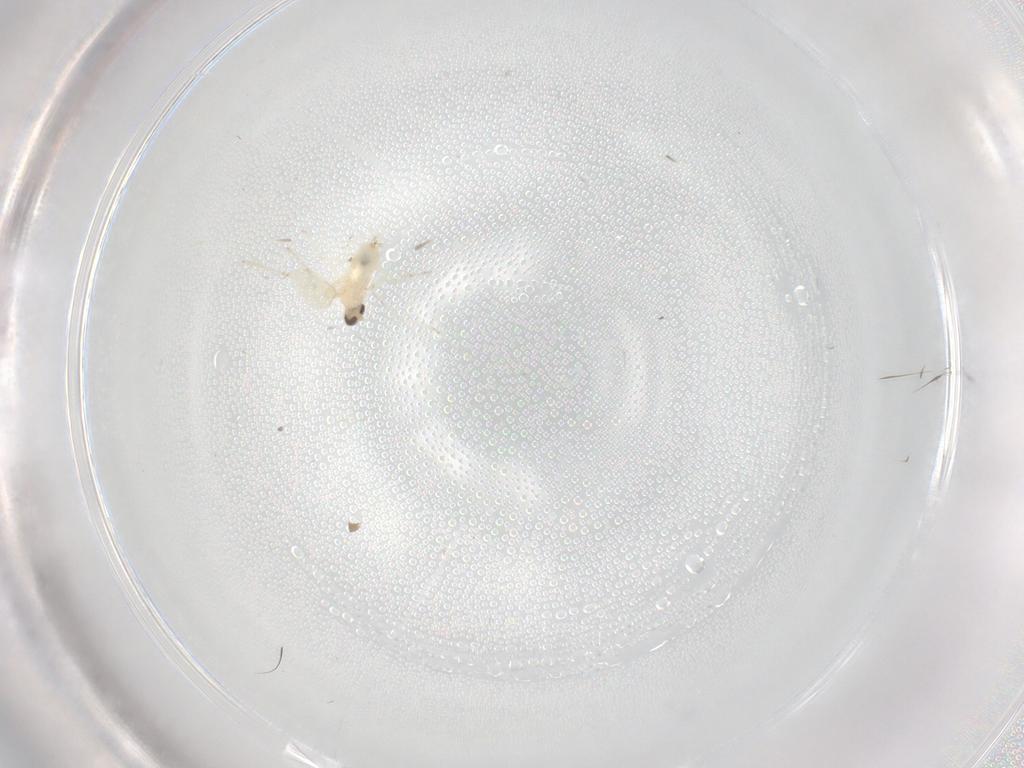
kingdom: Animalia
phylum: Arthropoda
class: Insecta
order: Diptera
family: Cecidomyiidae
